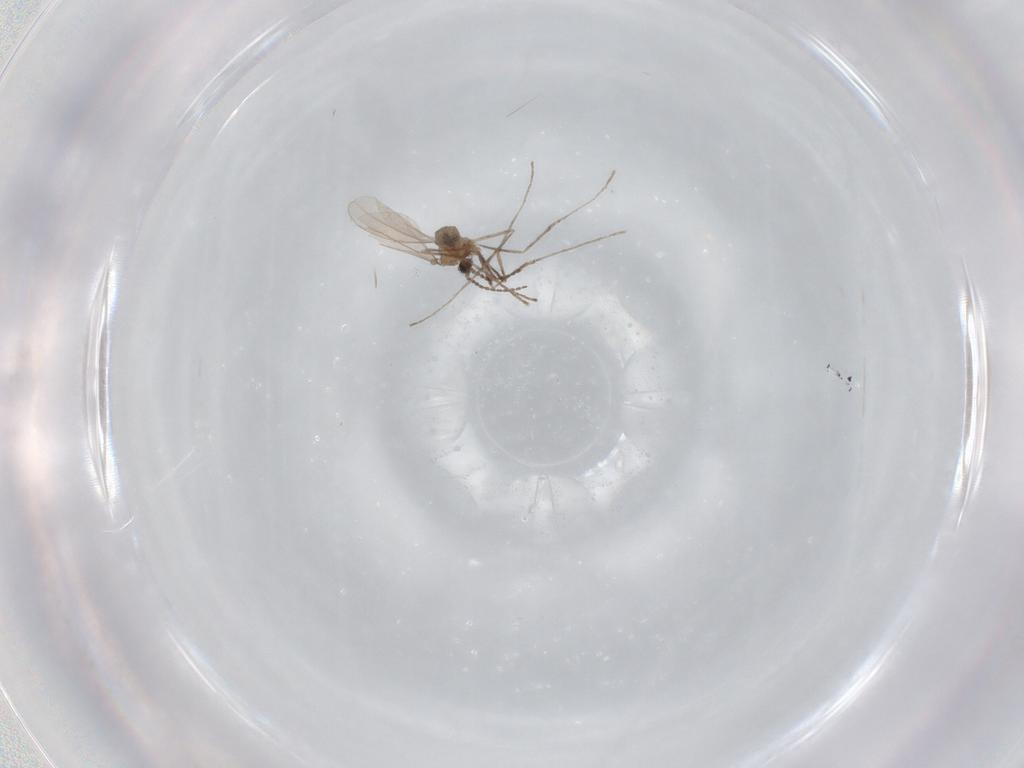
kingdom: Animalia
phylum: Arthropoda
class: Insecta
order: Diptera
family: Cecidomyiidae
